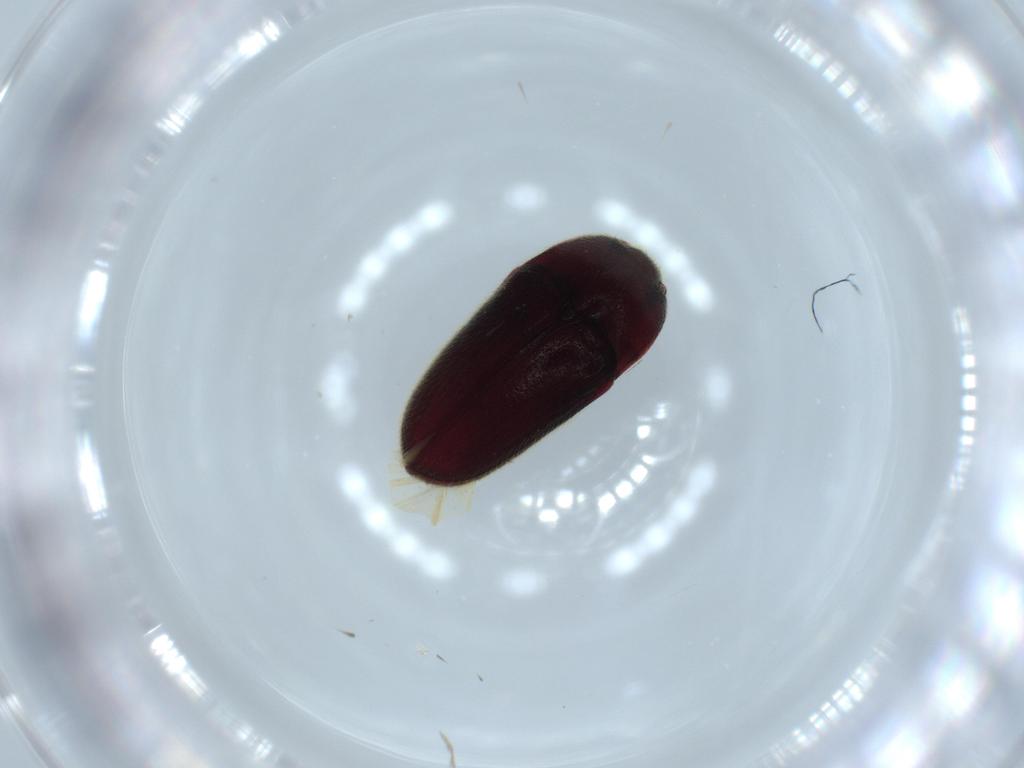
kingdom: Animalia
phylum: Arthropoda
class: Insecta
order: Coleoptera
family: Throscidae
